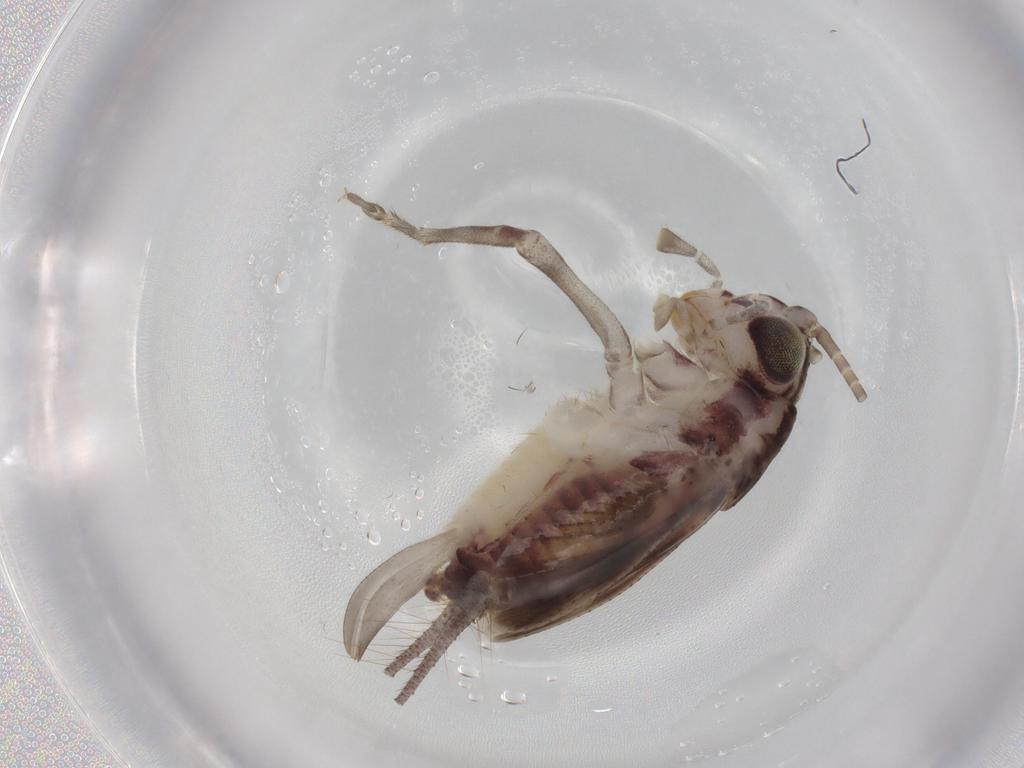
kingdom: Animalia
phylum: Arthropoda
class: Insecta
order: Orthoptera
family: Trigonidiidae
